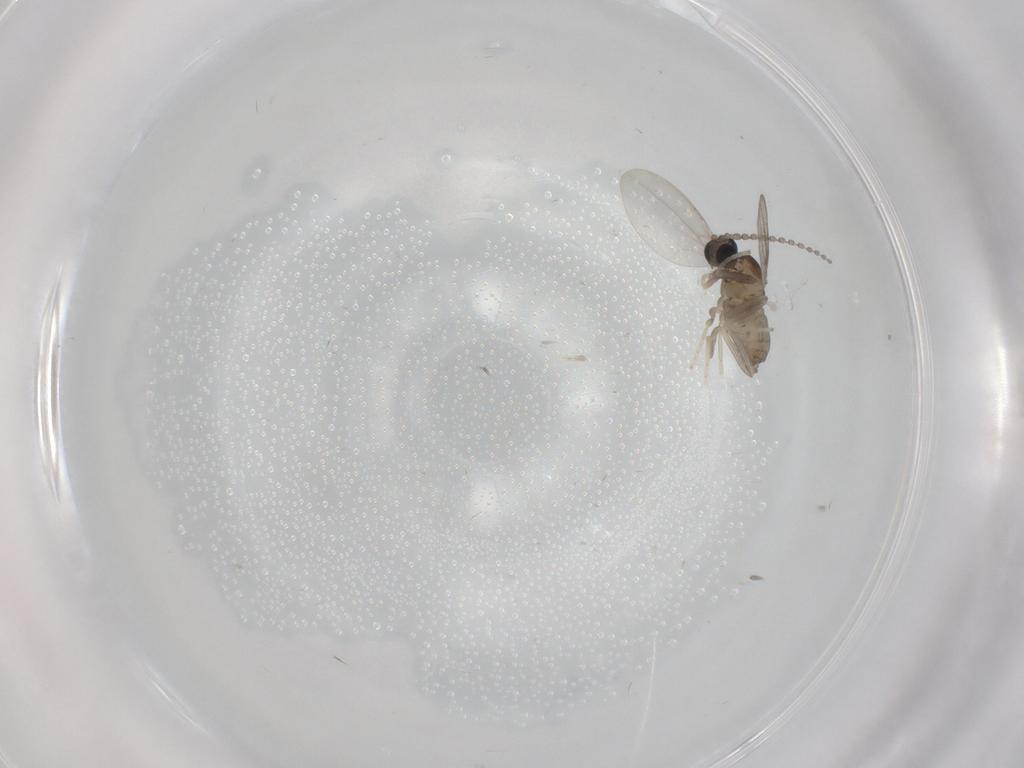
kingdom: Animalia
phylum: Arthropoda
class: Insecta
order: Diptera
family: Cecidomyiidae
